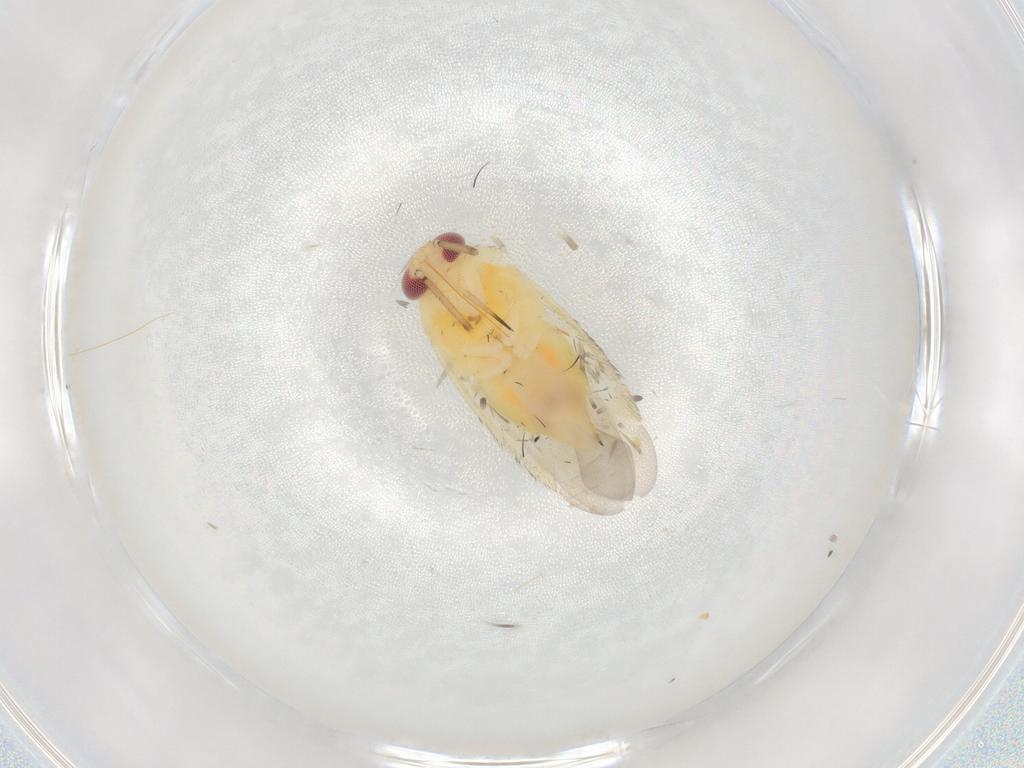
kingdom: Animalia
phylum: Arthropoda
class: Insecta
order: Hemiptera
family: Miridae
